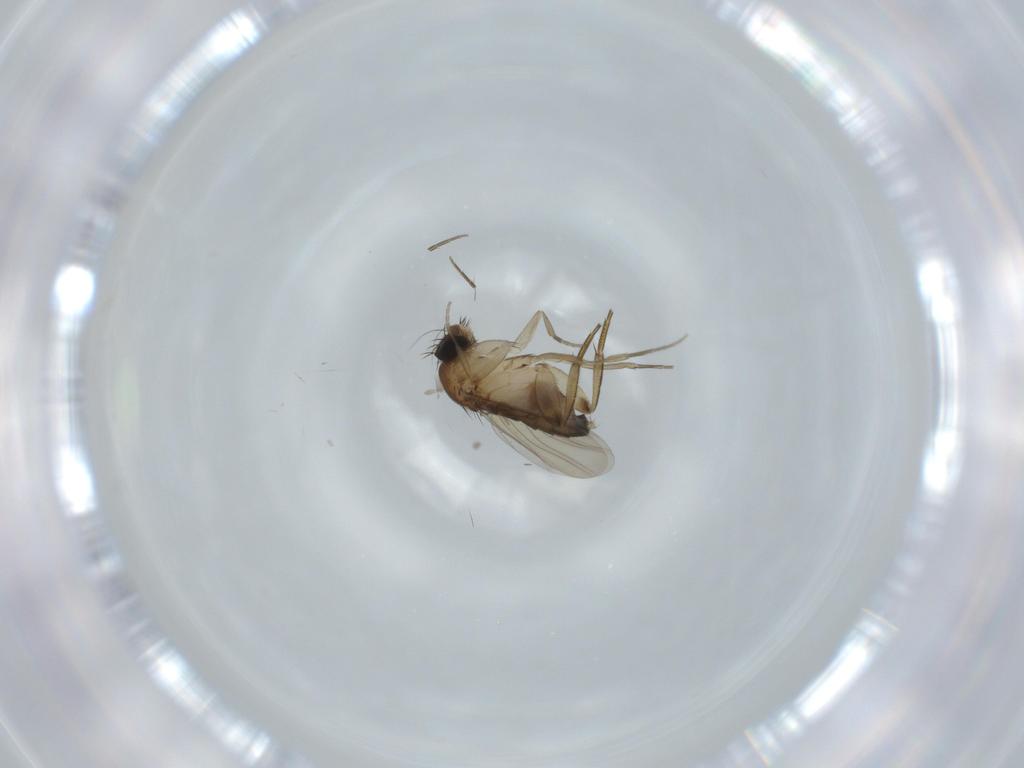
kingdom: Animalia
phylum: Arthropoda
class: Insecta
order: Diptera
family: Phoridae
